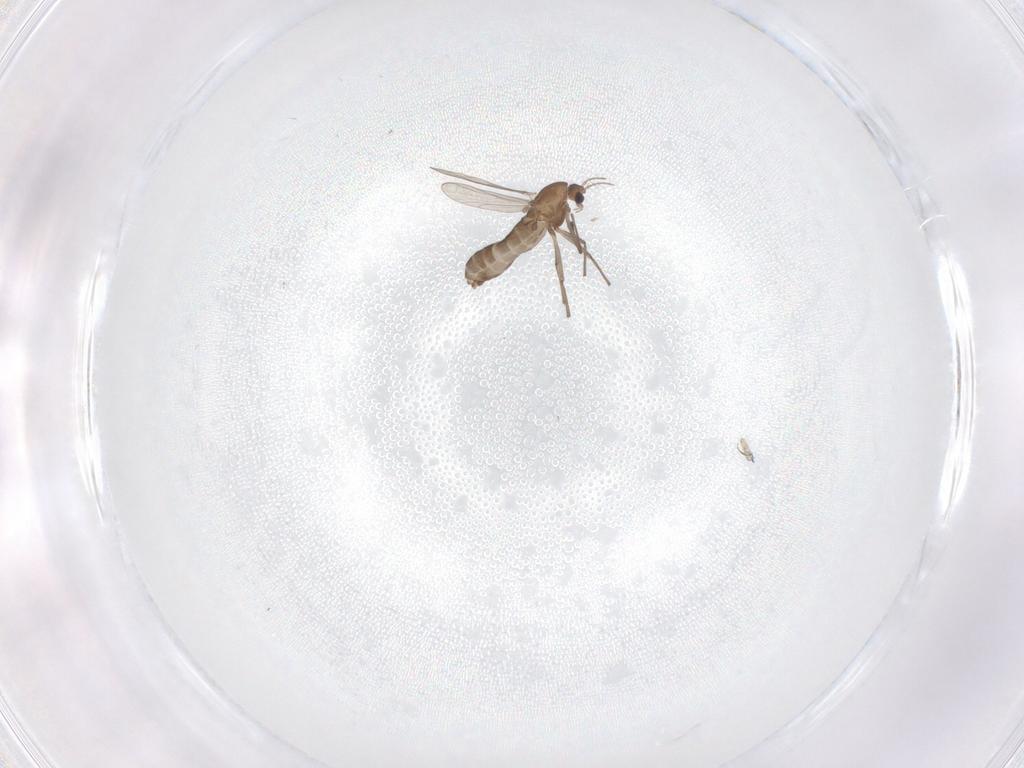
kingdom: Animalia
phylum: Arthropoda
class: Insecta
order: Diptera
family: Chironomidae
